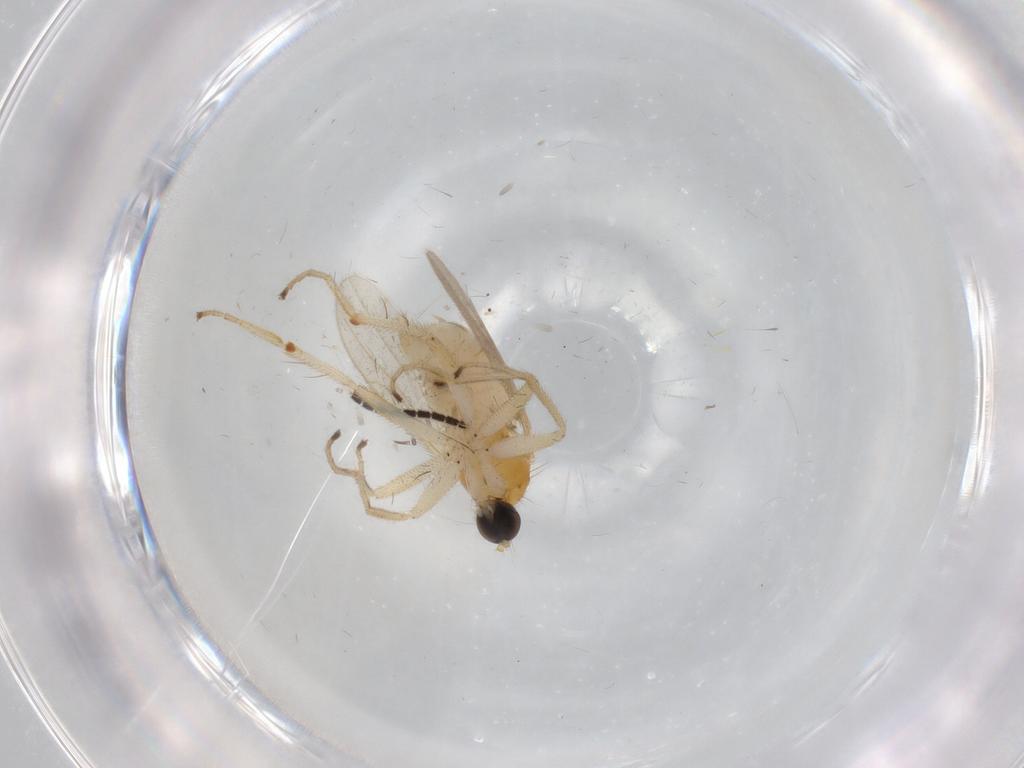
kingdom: Animalia
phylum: Arthropoda
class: Insecta
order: Diptera
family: Hybotidae
